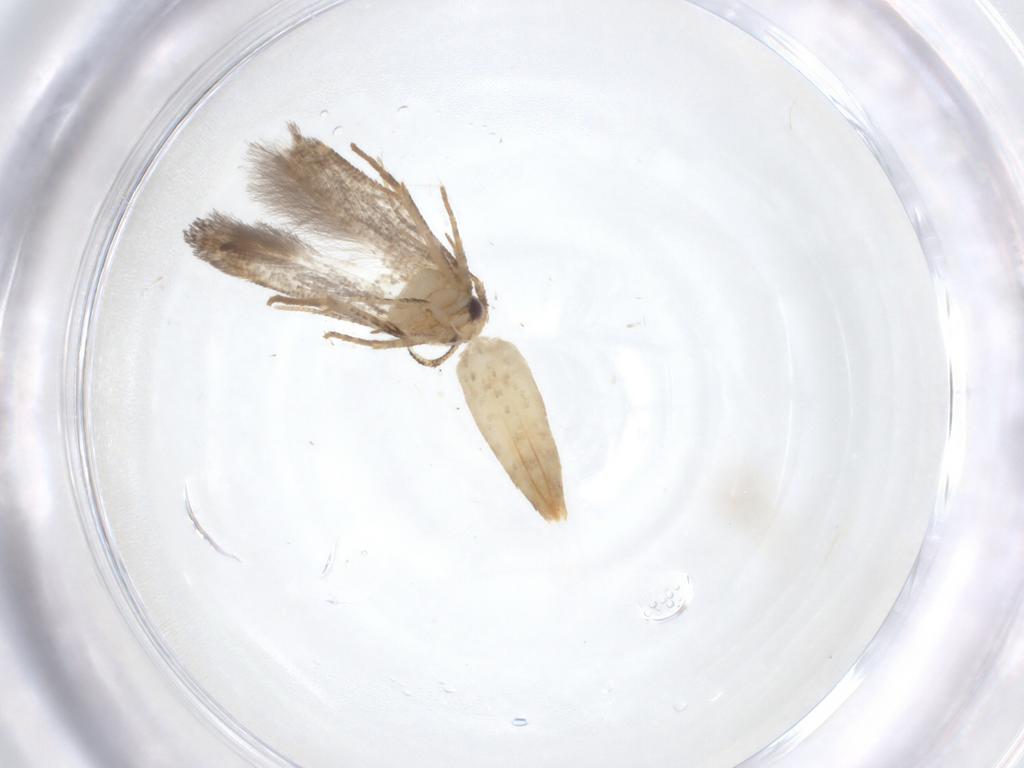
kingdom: Animalia
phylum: Arthropoda
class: Insecta
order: Lepidoptera
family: Cosmopterigidae
